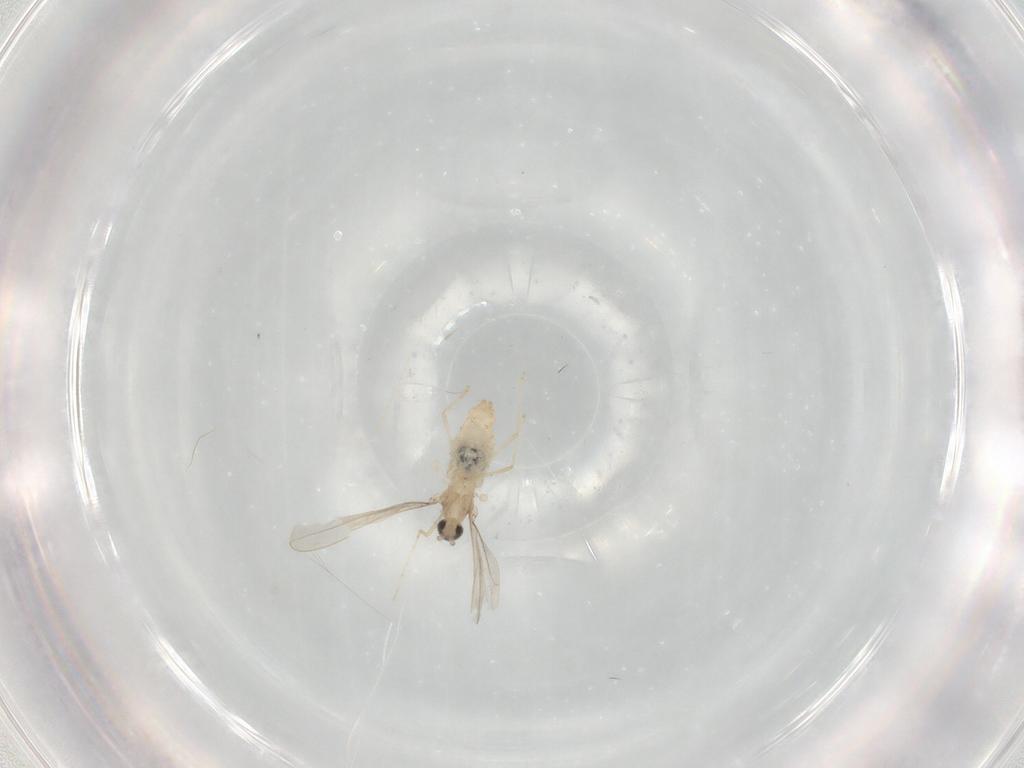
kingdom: Animalia
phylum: Arthropoda
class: Insecta
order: Diptera
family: Cecidomyiidae
